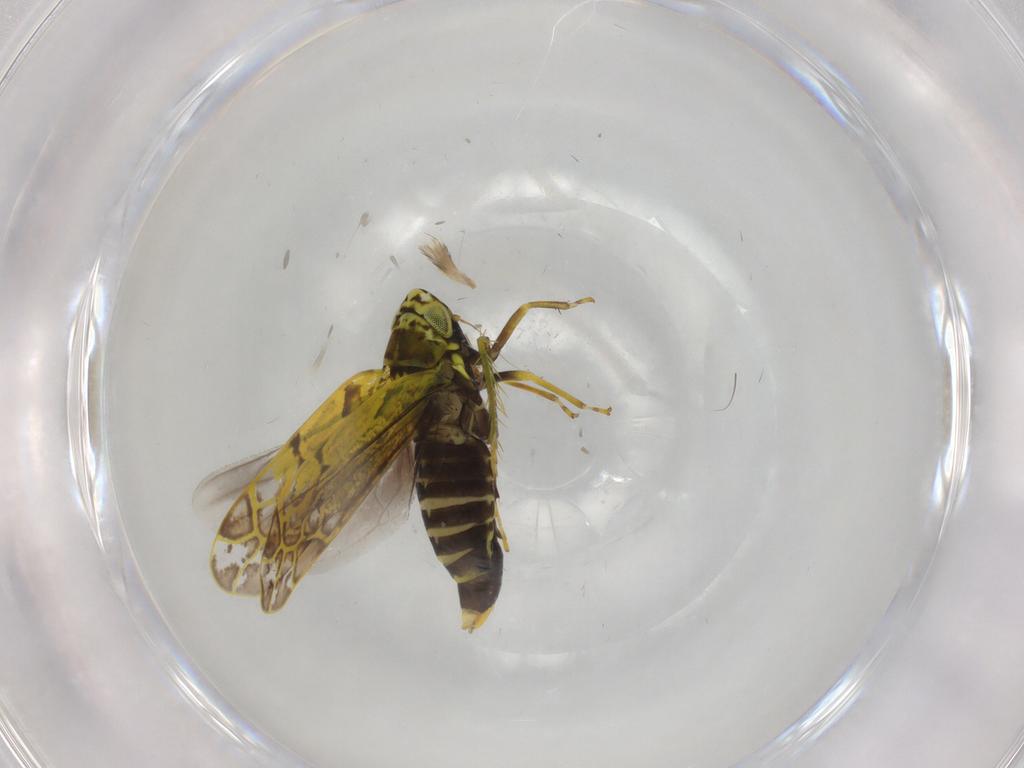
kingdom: Animalia
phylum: Arthropoda
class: Insecta
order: Hemiptera
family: Cicadellidae
